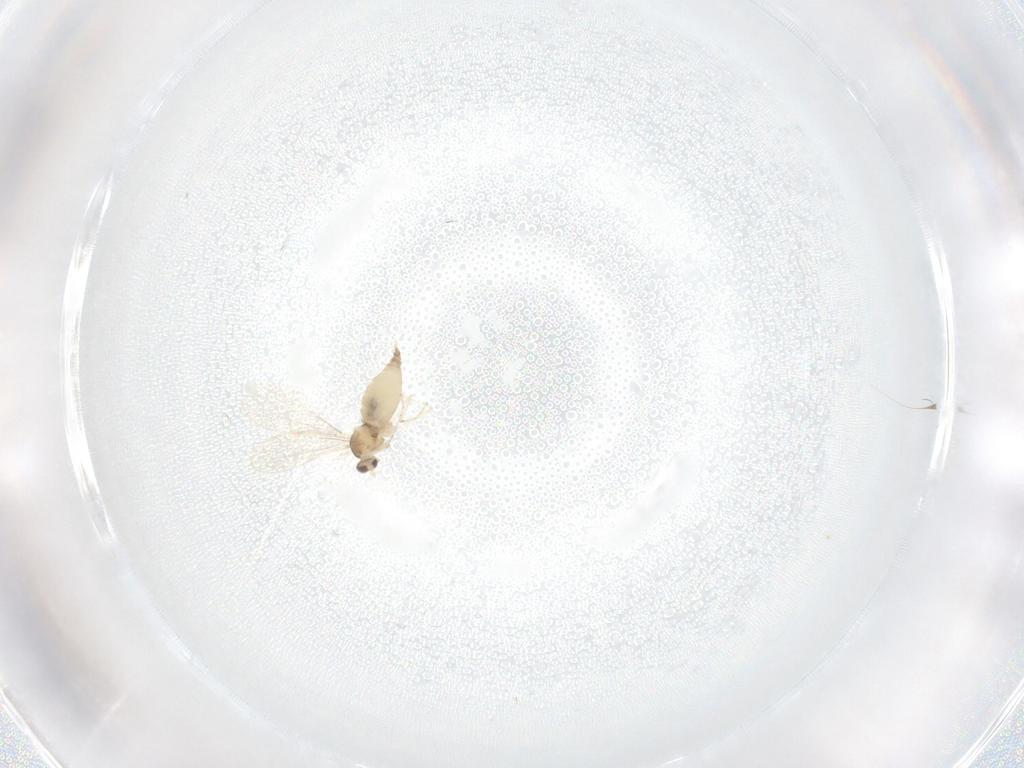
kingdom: Animalia
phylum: Arthropoda
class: Insecta
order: Diptera
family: Cecidomyiidae
